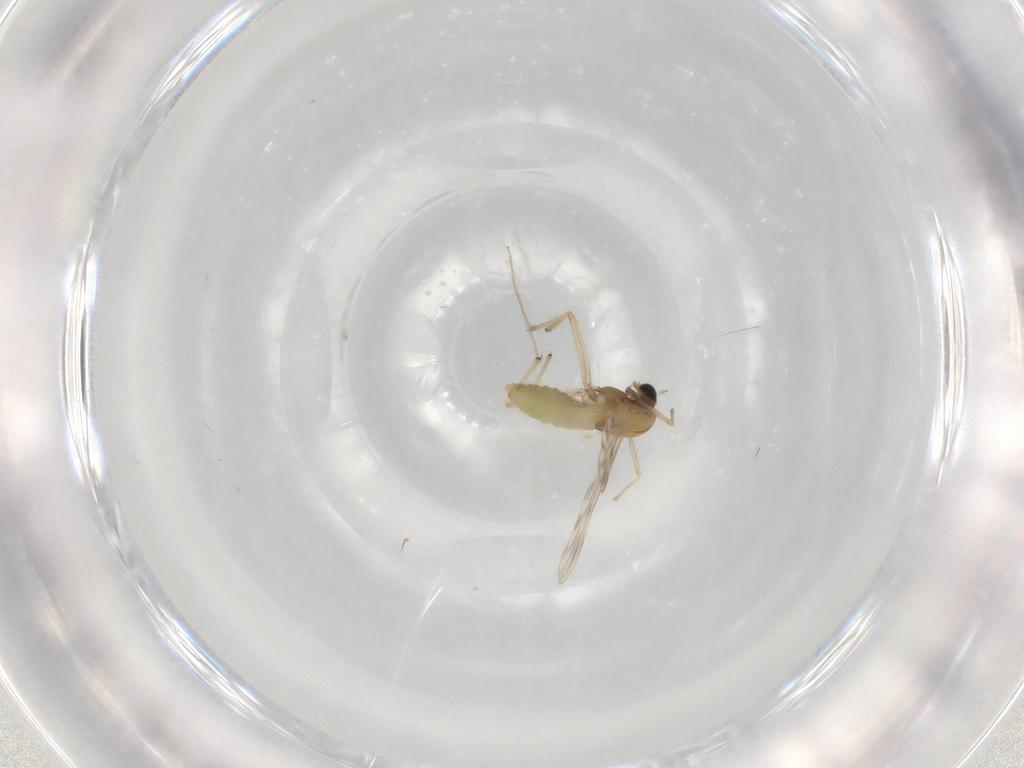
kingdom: Animalia
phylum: Arthropoda
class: Insecta
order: Diptera
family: Chironomidae
